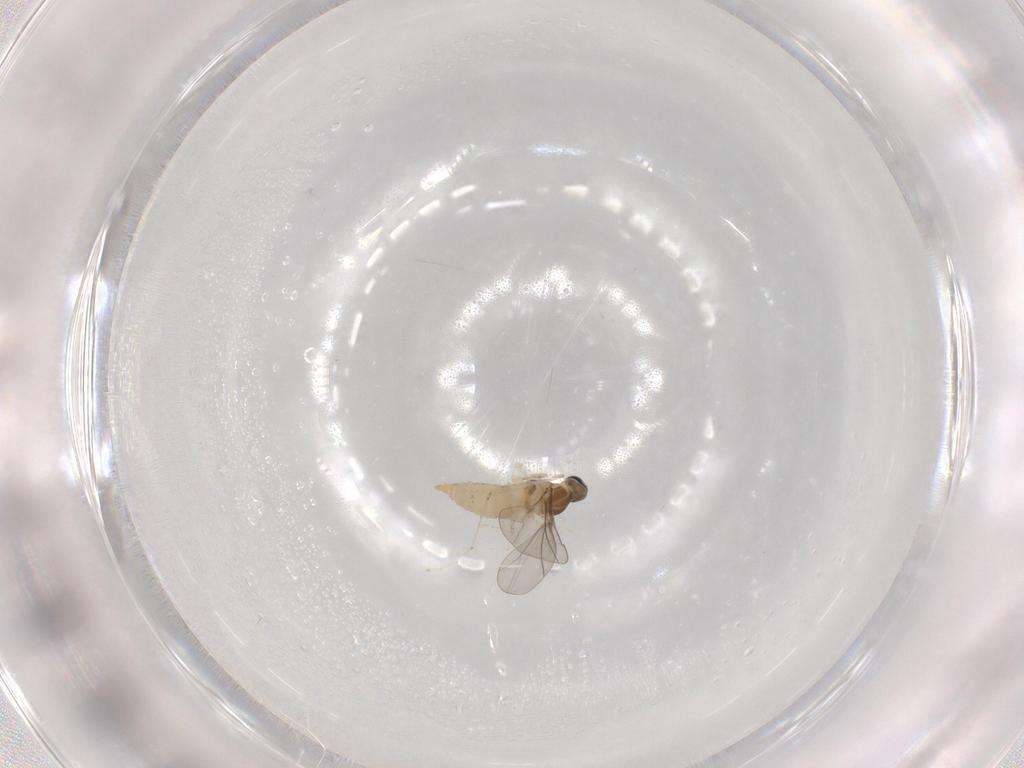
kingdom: Animalia
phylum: Arthropoda
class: Insecta
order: Diptera
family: Cecidomyiidae
